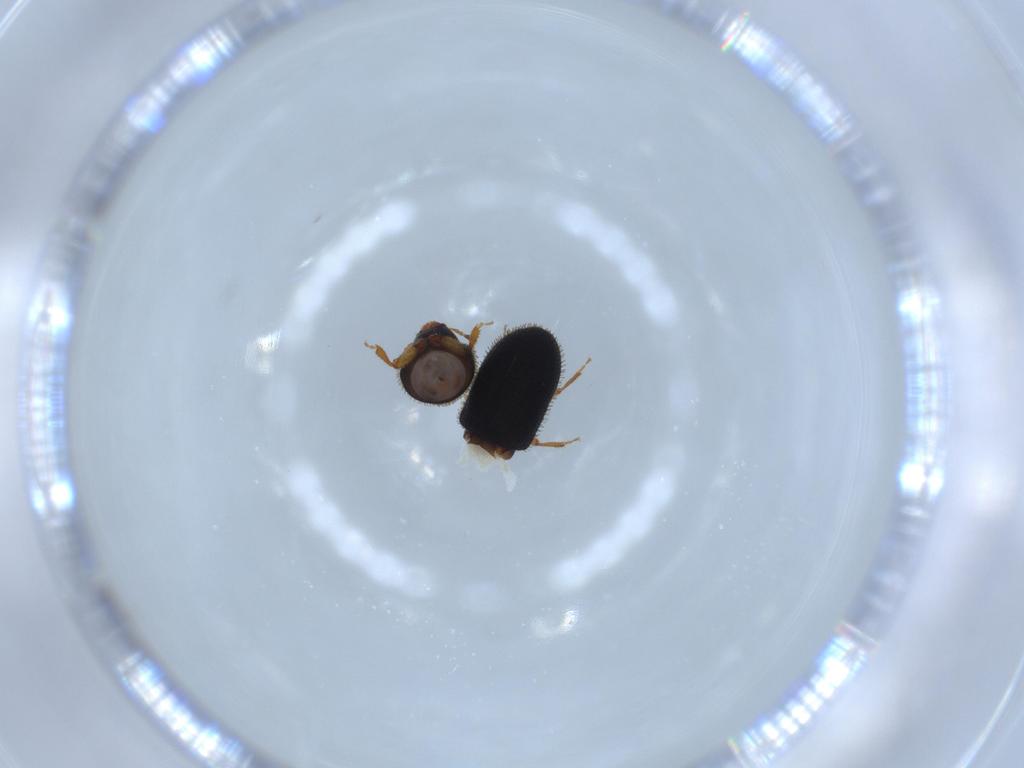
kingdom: Animalia
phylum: Arthropoda
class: Insecta
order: Coleoptera
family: Curculionidae
